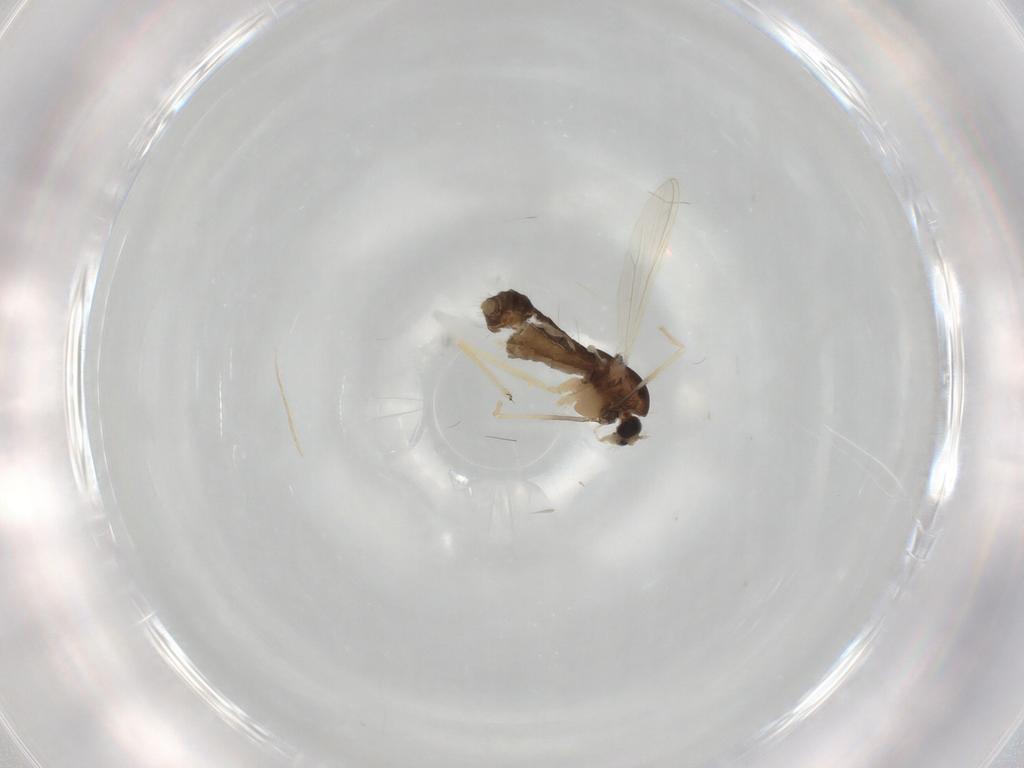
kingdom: Animalia
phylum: Arthropoda
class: Insecta
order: Diptera
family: Chironomidae
